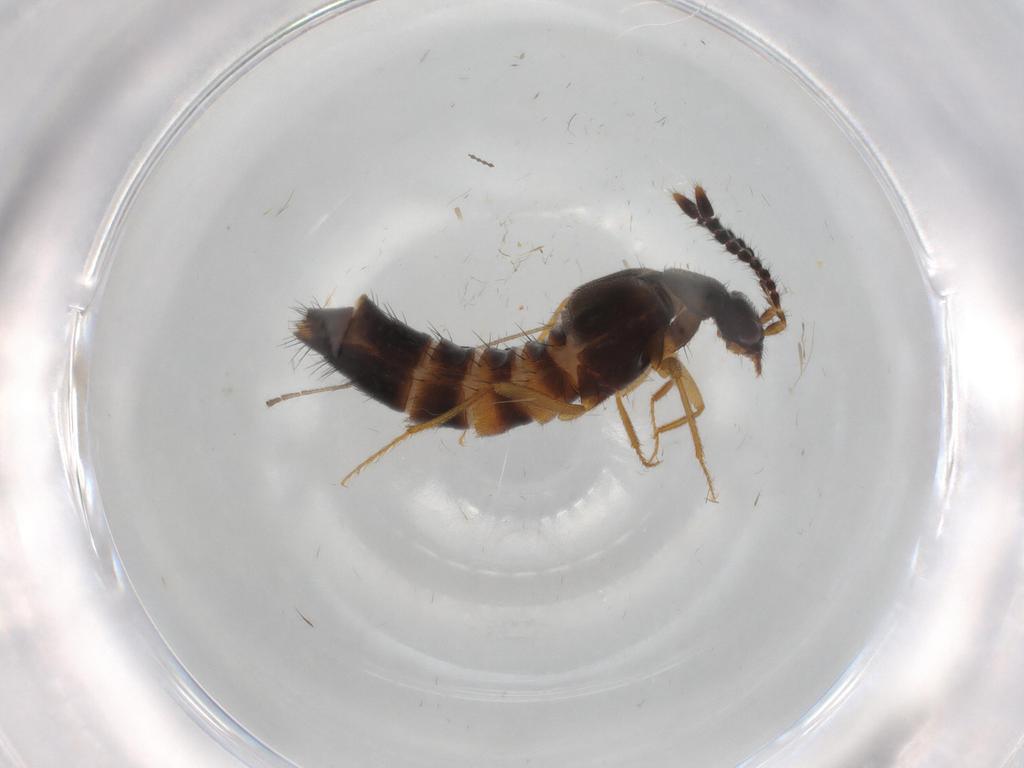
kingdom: Animalia
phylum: Arthropoda
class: Insecta
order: Coleoptera
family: Staphylinidae
